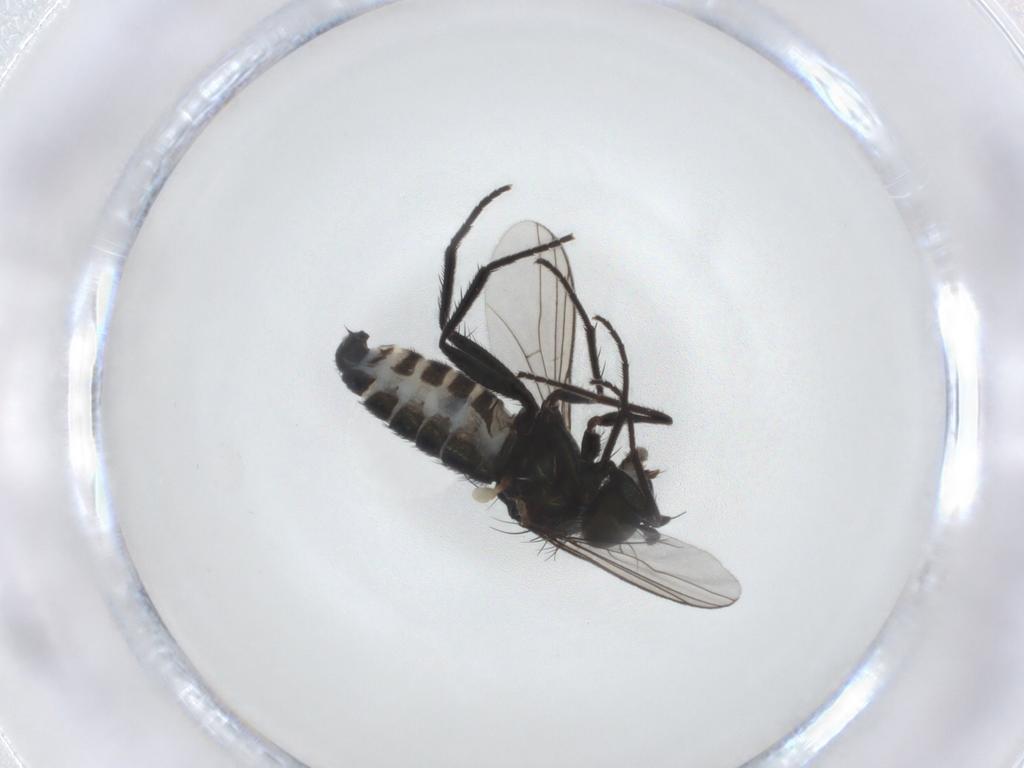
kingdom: Animalia
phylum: Arthropoda
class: Insecta
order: Diptera
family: Dolichopodidae
